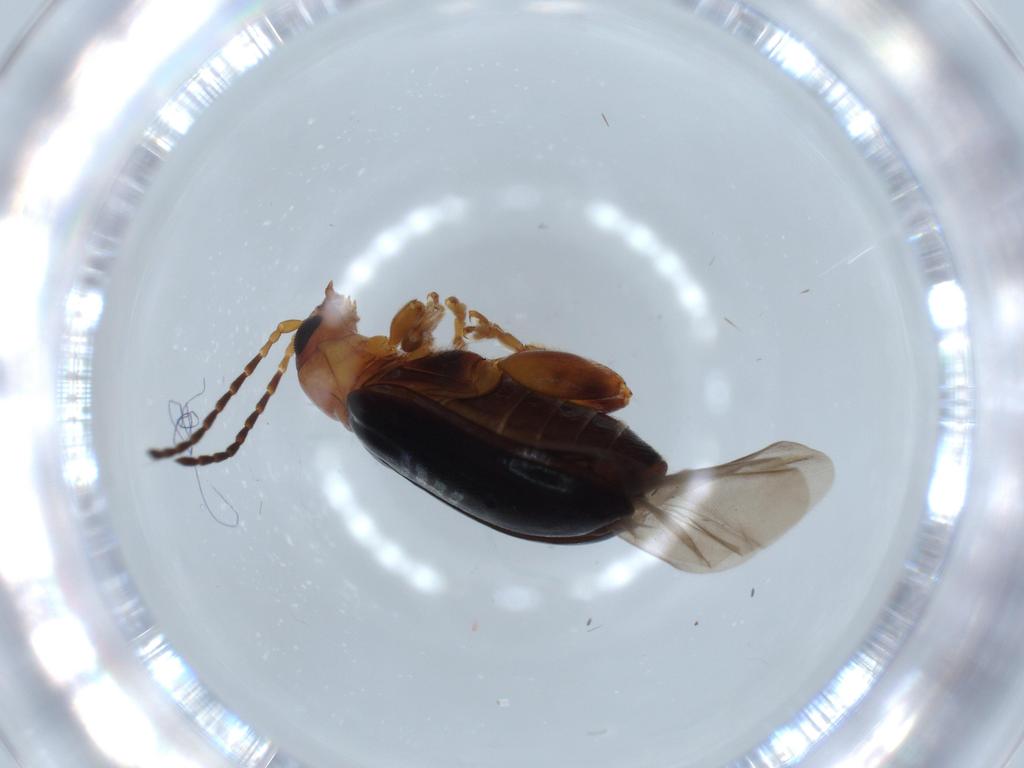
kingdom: Animalia
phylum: Arthropoda
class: Insecta
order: Coleoptera
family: Chrysomelidae
